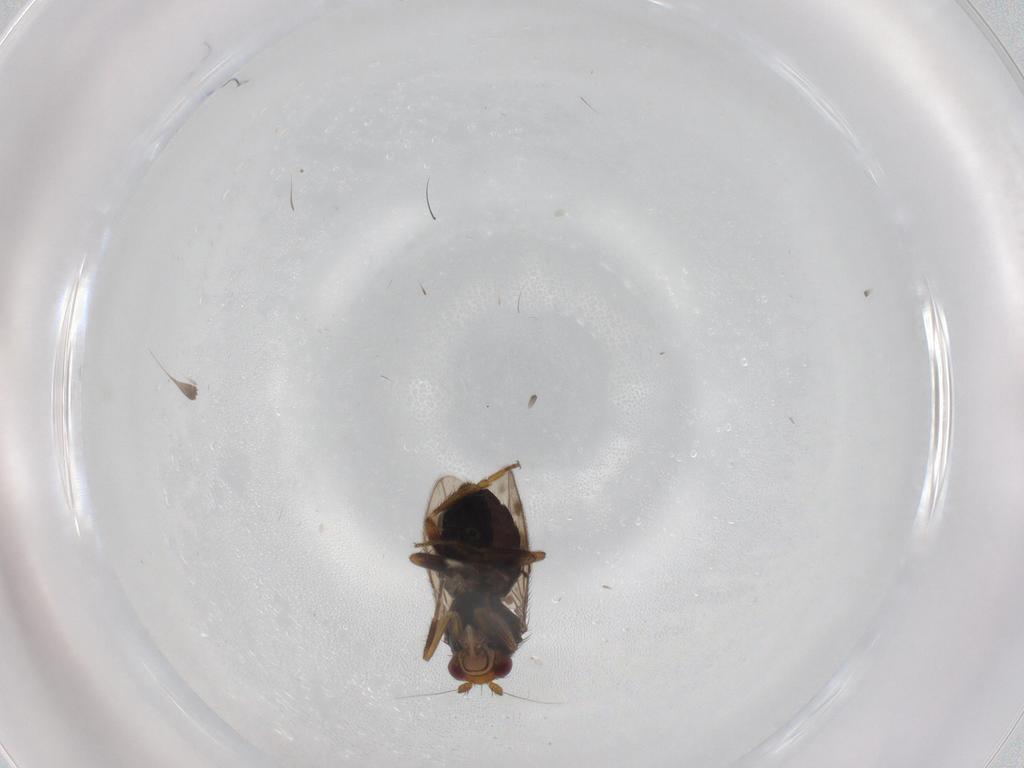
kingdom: Animalia
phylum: Arthropoda
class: Insecta
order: Diptera
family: Sphaeroceridae
